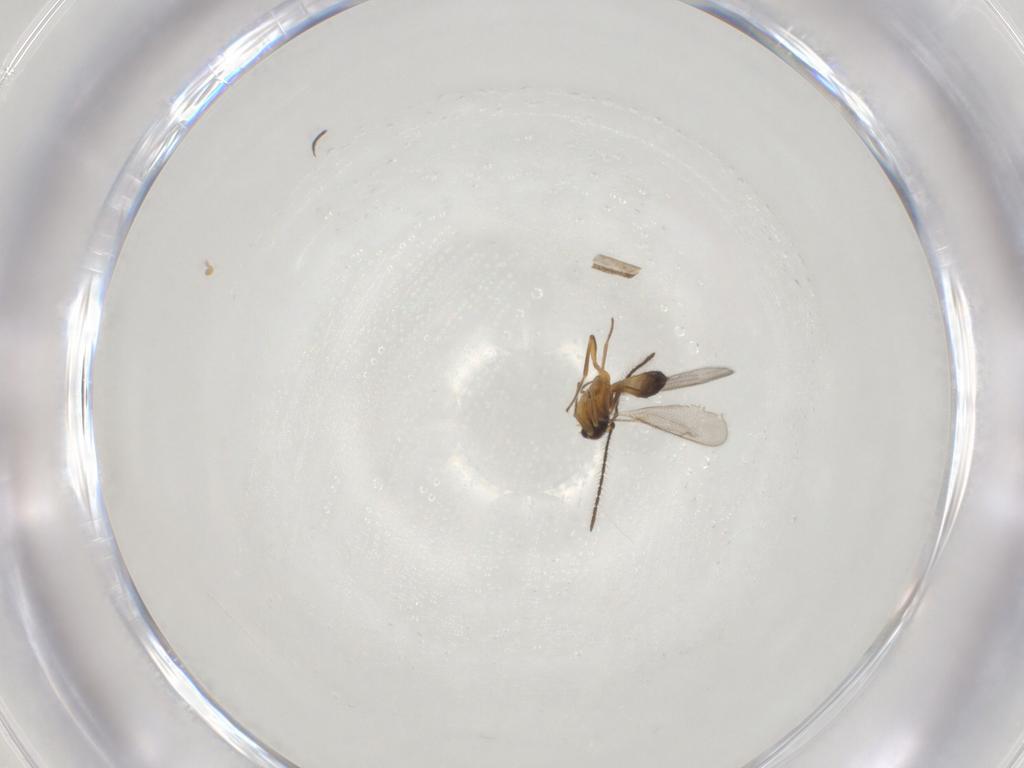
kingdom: Animalia
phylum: Arthropoda
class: Insecta
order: Hymenoptera
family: Eupelmidae
